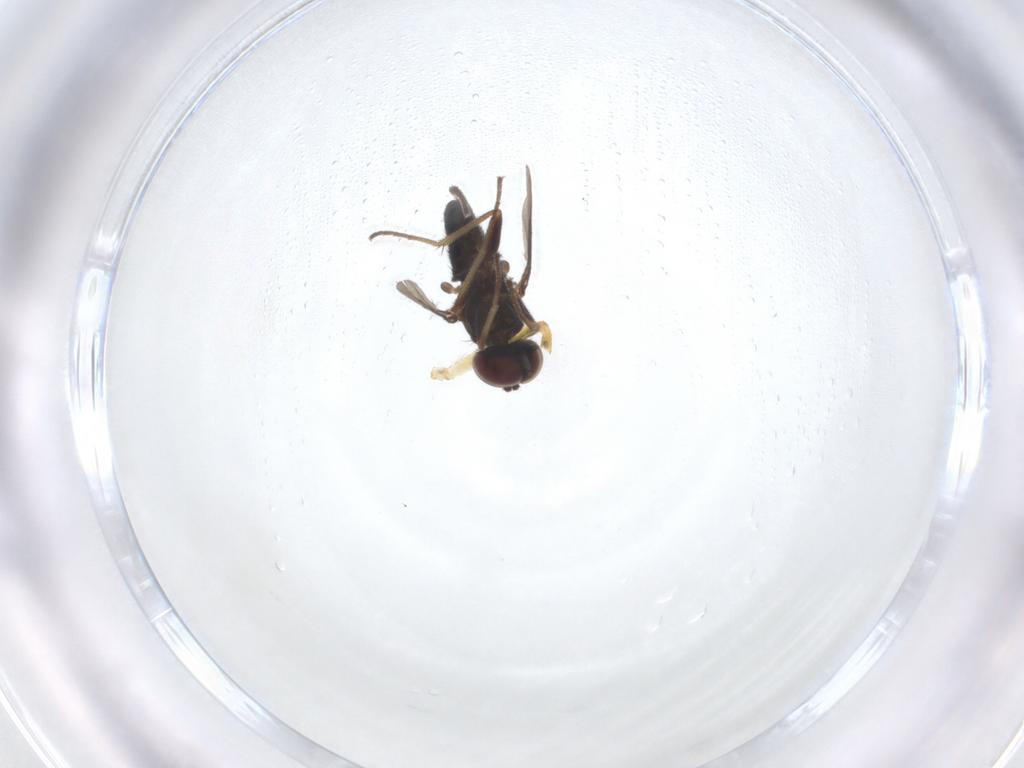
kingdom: Animalia
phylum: Arthropoda
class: Insecta
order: Diptera
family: Dolichopodidae
